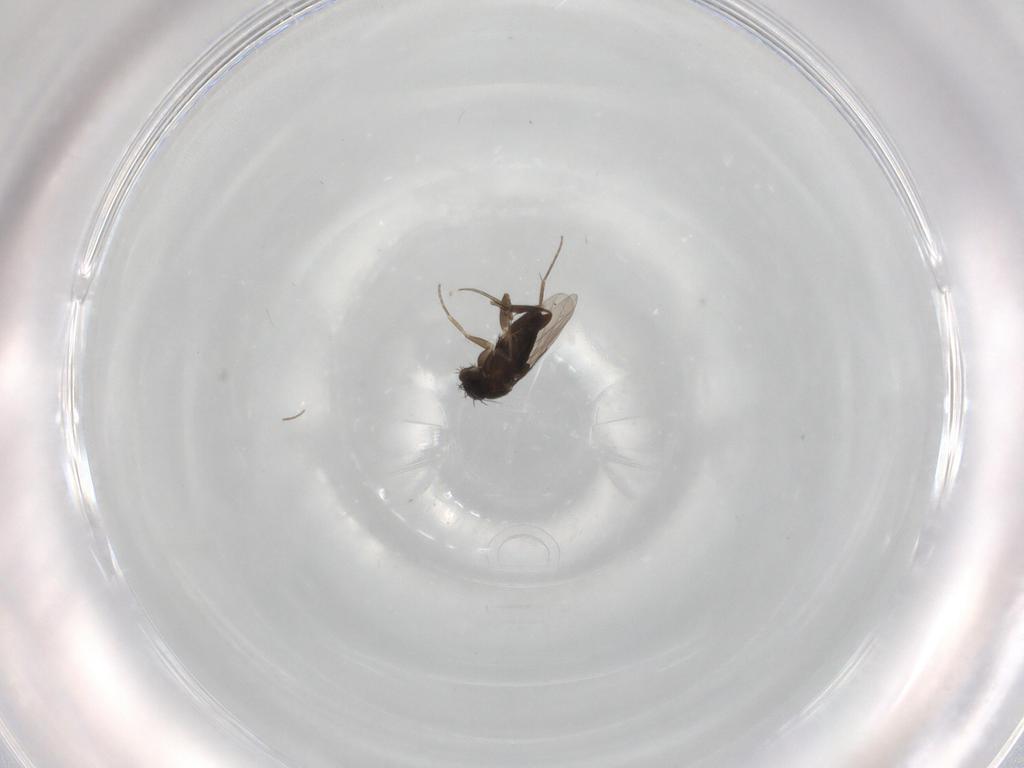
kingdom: Animalia
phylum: Arthropoda
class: Insecta
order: Diptera
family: Phoridae
